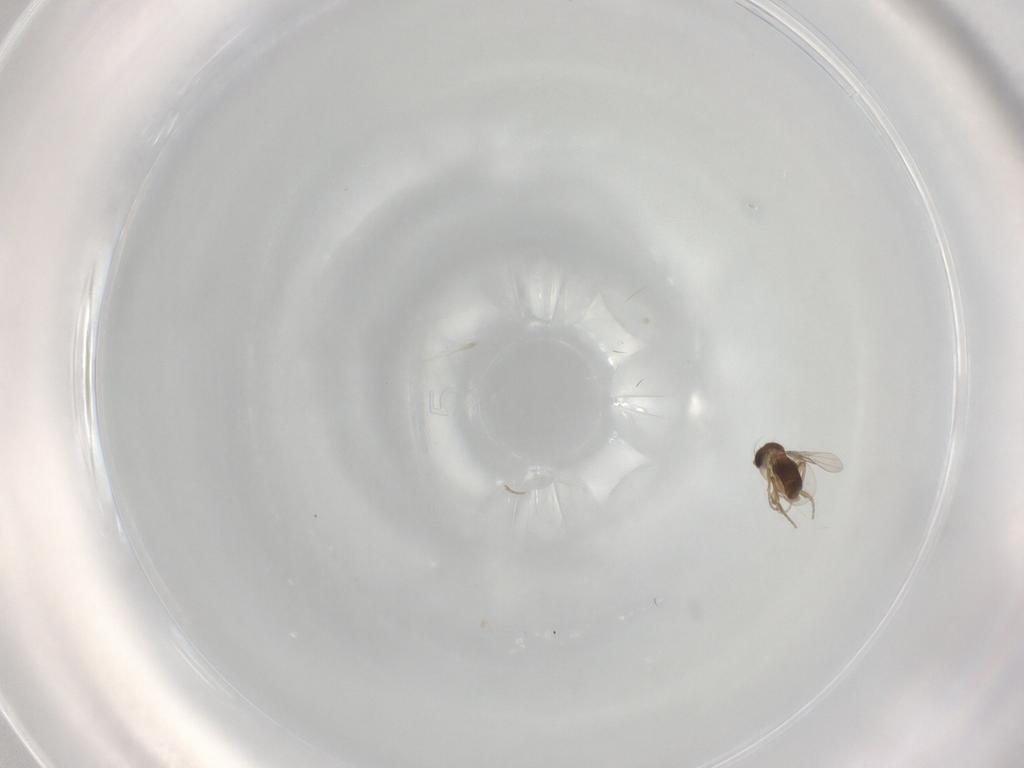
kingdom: Animalia
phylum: Arthropoda
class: Insecta
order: Diptera
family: Phoridae
